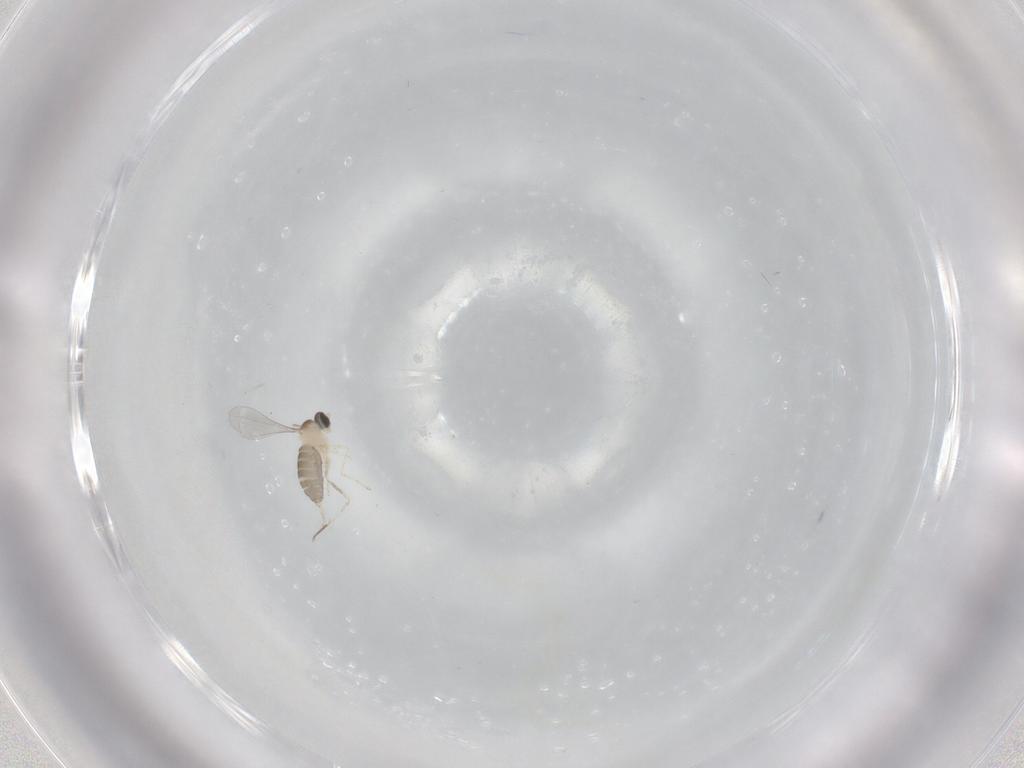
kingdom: Animalia
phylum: Arthropoda
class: Insecta
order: Diptera
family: Cecidomyiidae
